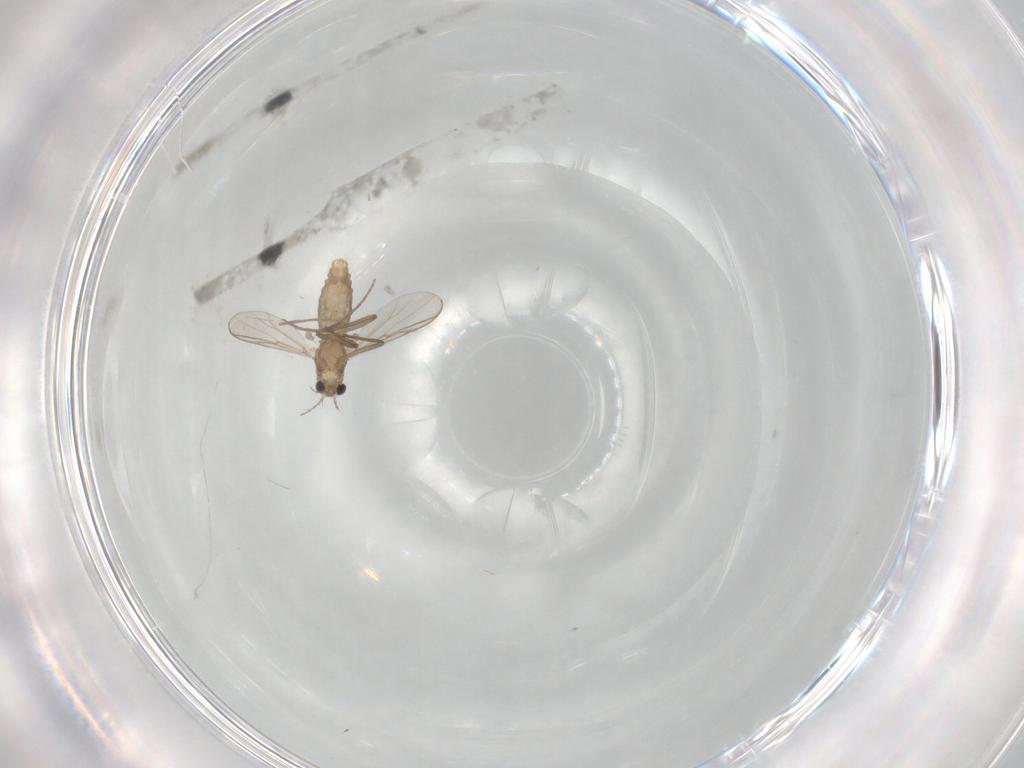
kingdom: Animalia
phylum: Arthropoda
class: Insecta
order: Diptera
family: Chironomidae
